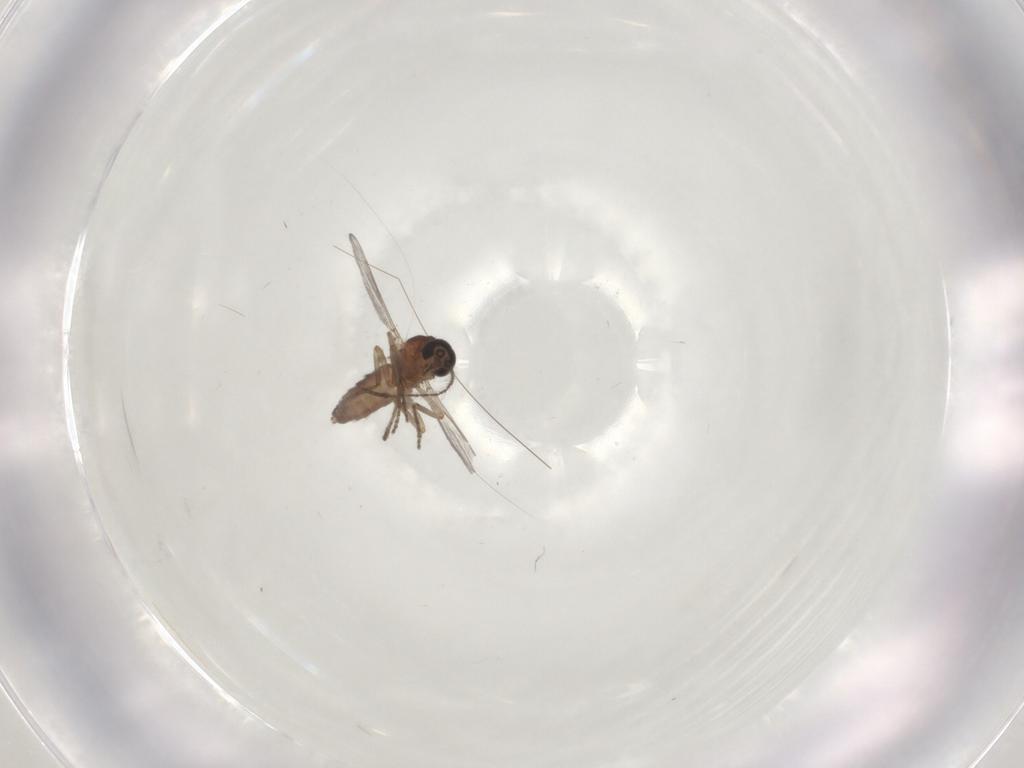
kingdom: Animalia
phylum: Arthropoda
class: Insecta
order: Diptera
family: Ceratopogonidae
